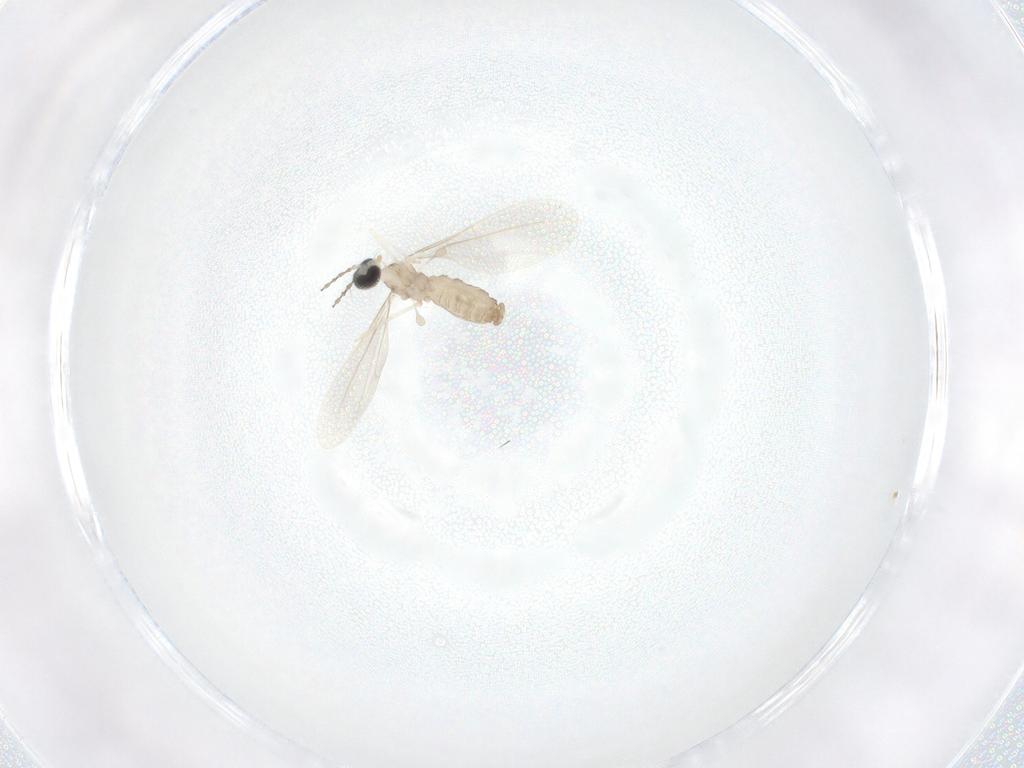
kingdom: Animalia
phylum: Arthropoda
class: Insecta
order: Diptera
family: Cecidomyiidae
